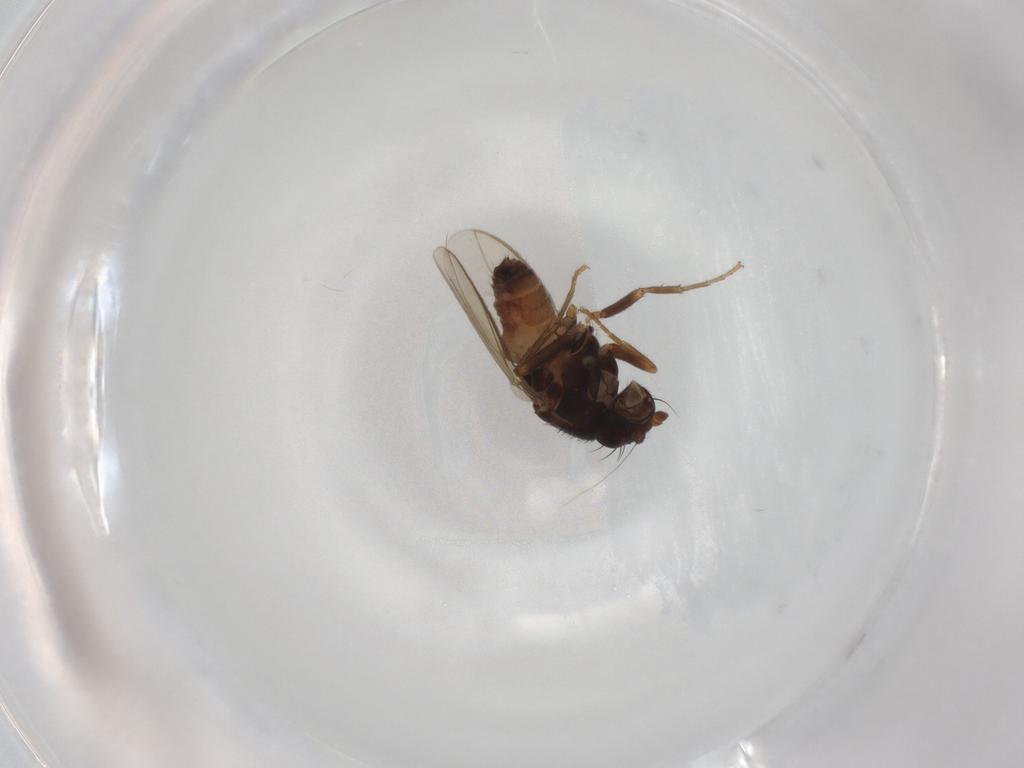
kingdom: Animalia
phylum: Arthropoda
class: Insecta
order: Diptera
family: Sphaeroceridae
